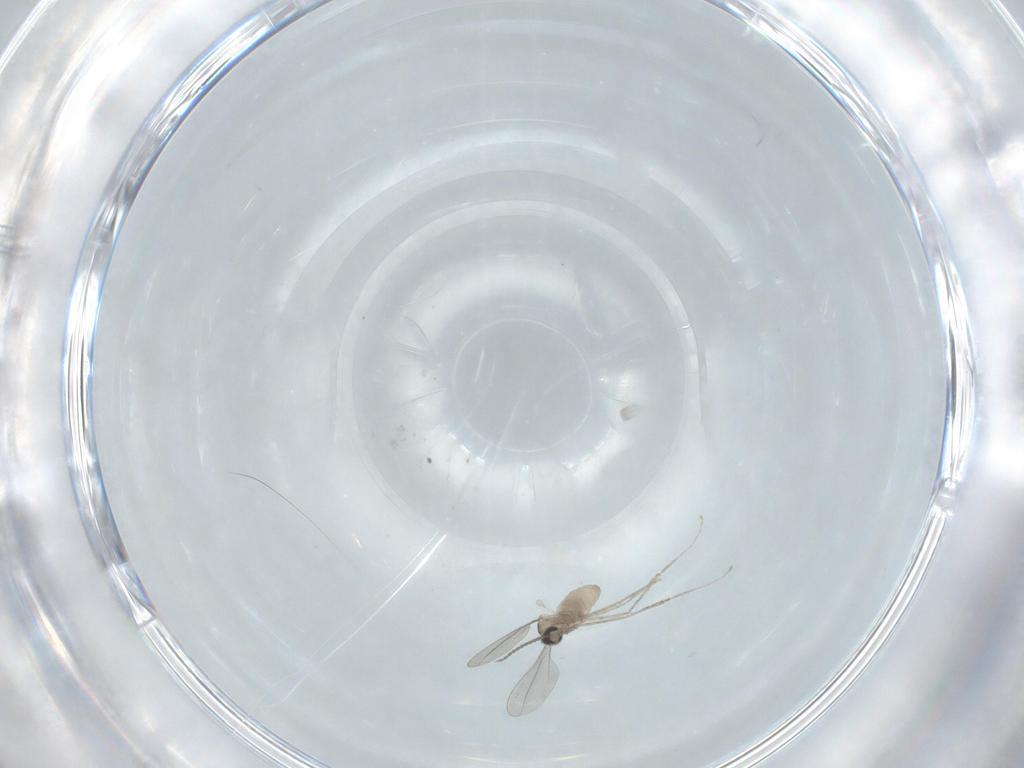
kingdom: Animalia
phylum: Arthropoda
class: Insecta
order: Diptera
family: Cecidomyiidae
